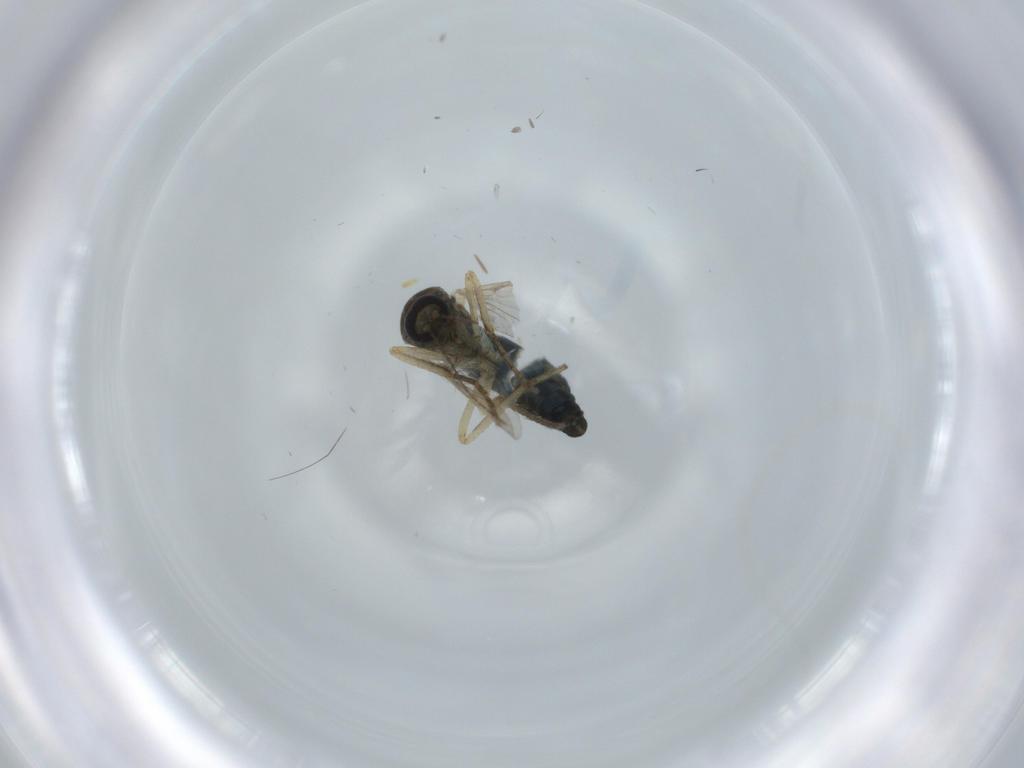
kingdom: Animalia
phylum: Arthropoda
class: Insecta
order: Diptera
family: Ceratopogonidae
